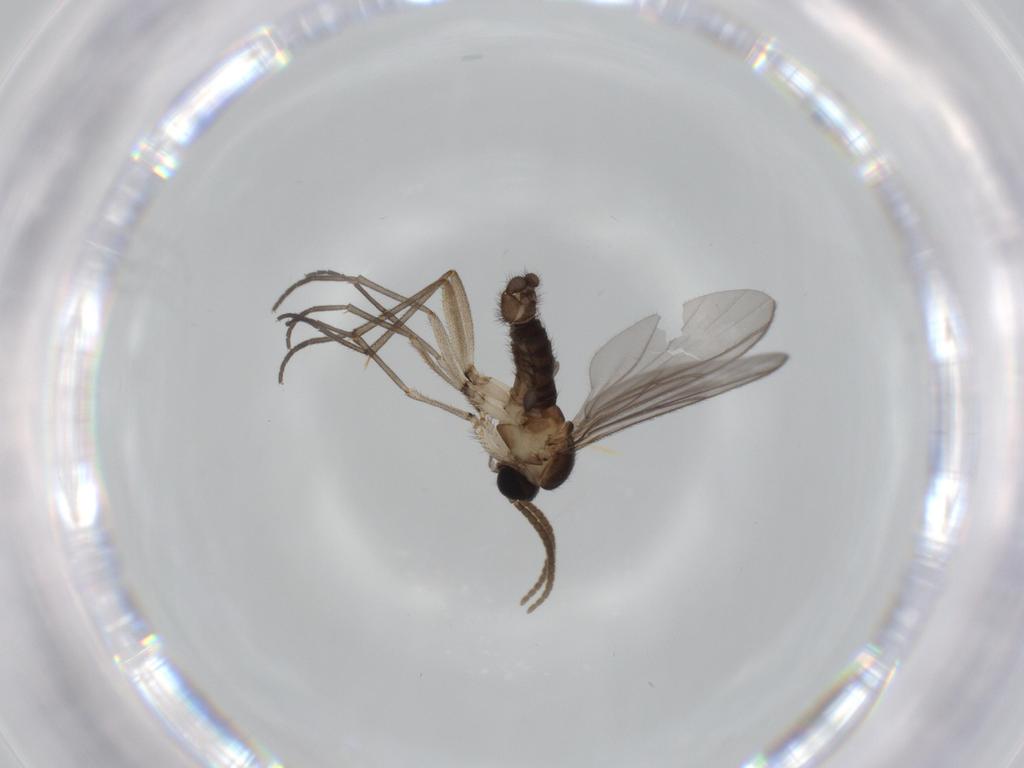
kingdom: Animalia
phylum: Arthropoda
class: Insecta
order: Diptera
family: Sciaridae
